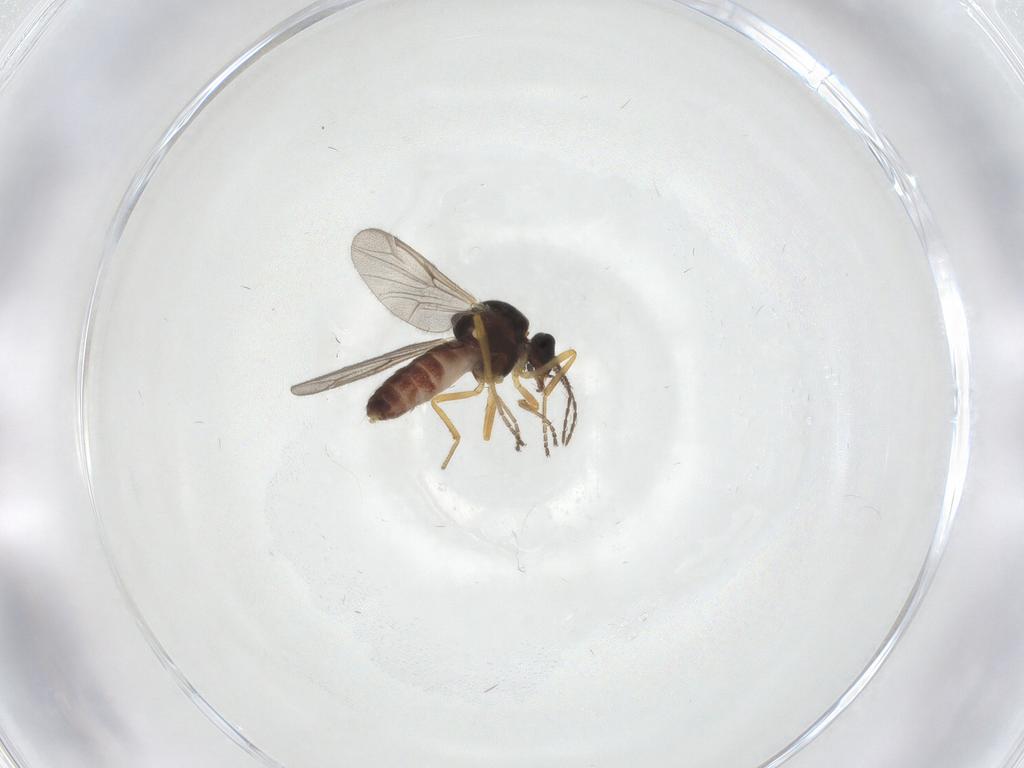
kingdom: Animalia
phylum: Arthropoda
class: Insecta
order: Diptera
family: Ceratopogonidae
